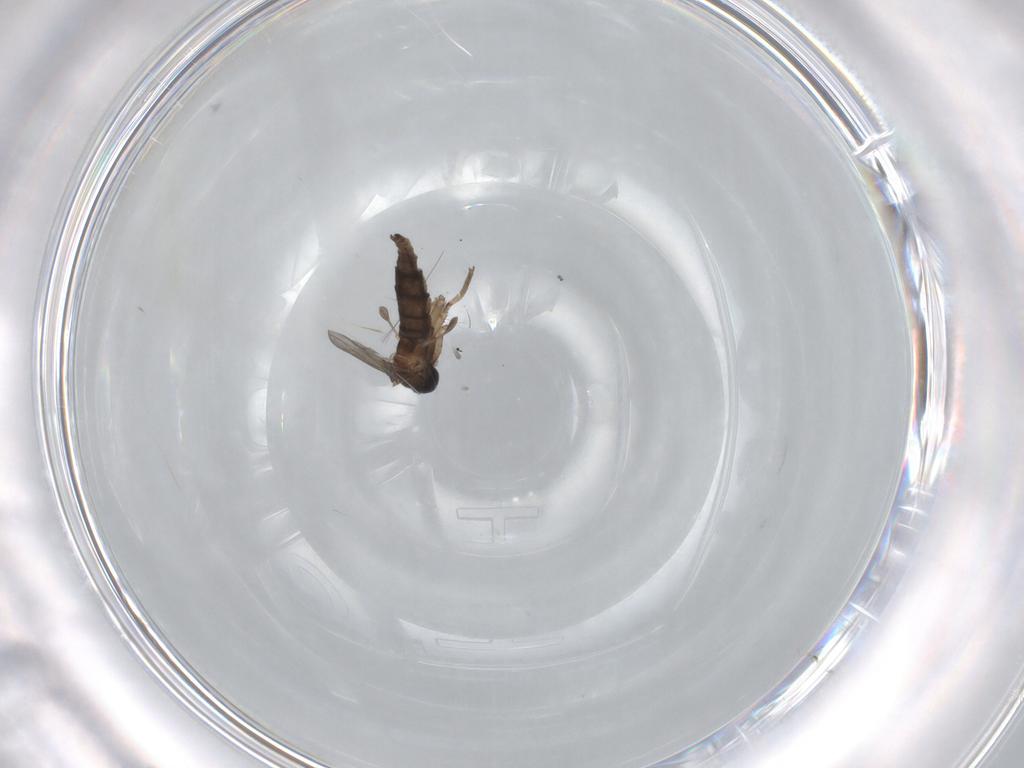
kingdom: Animalia
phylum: Arthropoda
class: Insecta
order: Diptera
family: Sciaridae
